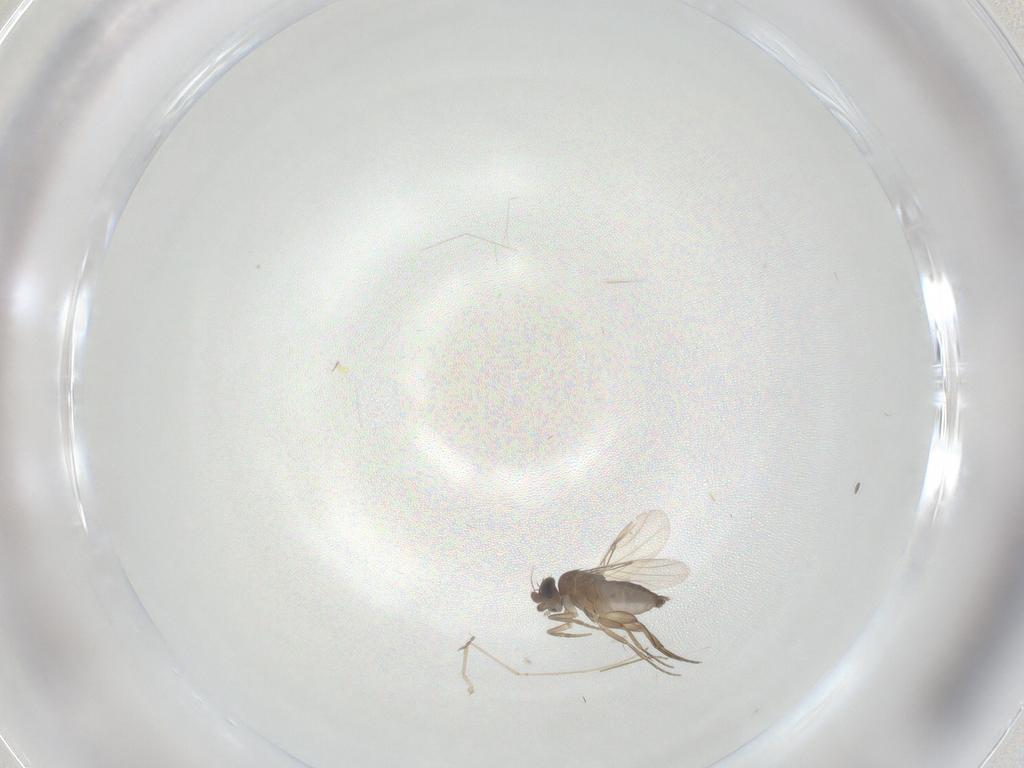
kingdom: Animalia
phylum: Arthropoda
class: Insecta
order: Diptera
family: Phoridae
